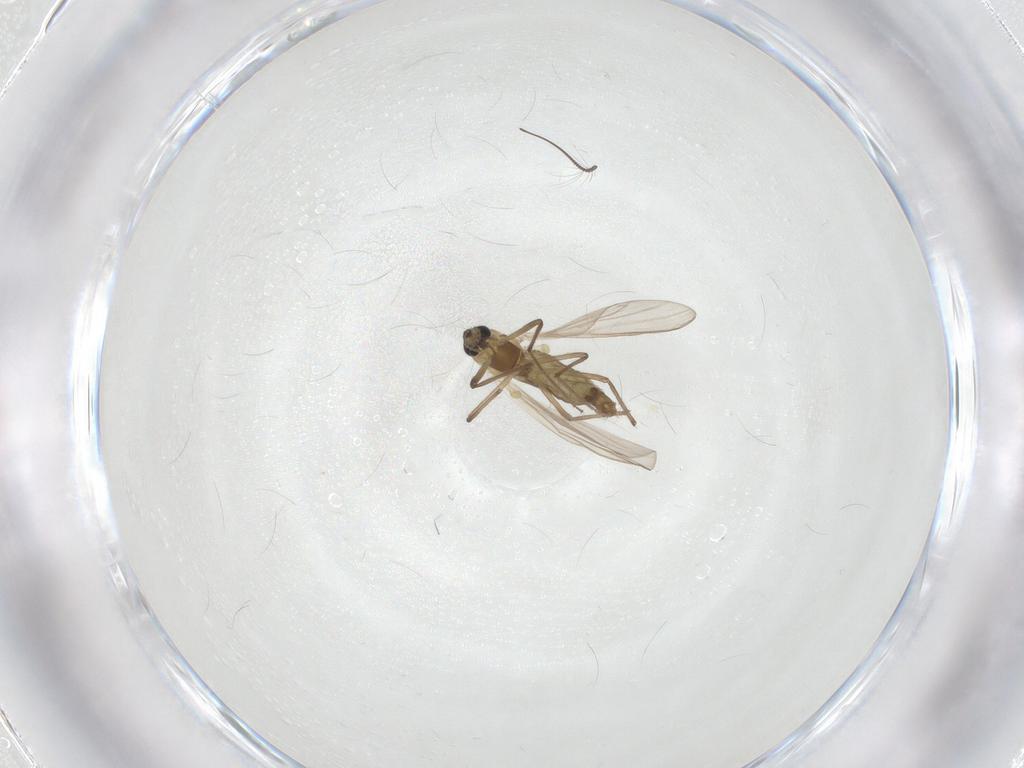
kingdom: Animalia
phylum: Arthropoda
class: Insecta
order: Diptera
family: Chironomidae
